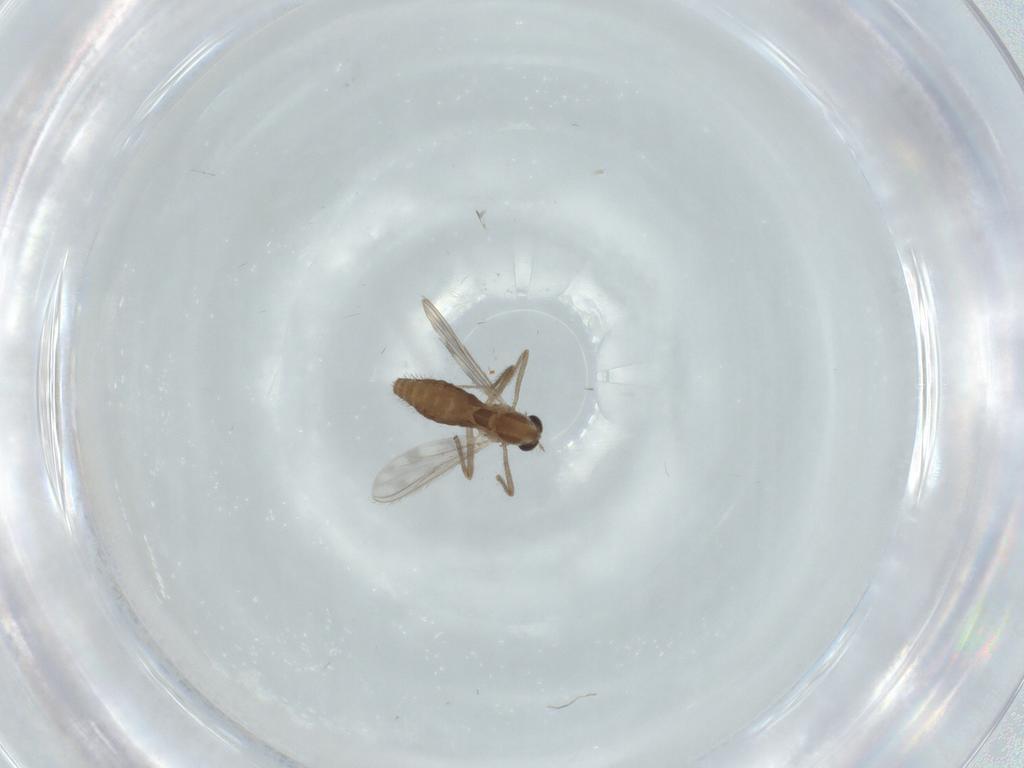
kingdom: Animalia
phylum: Arthropoda
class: Insecta
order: Diptera
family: Chironomidae
